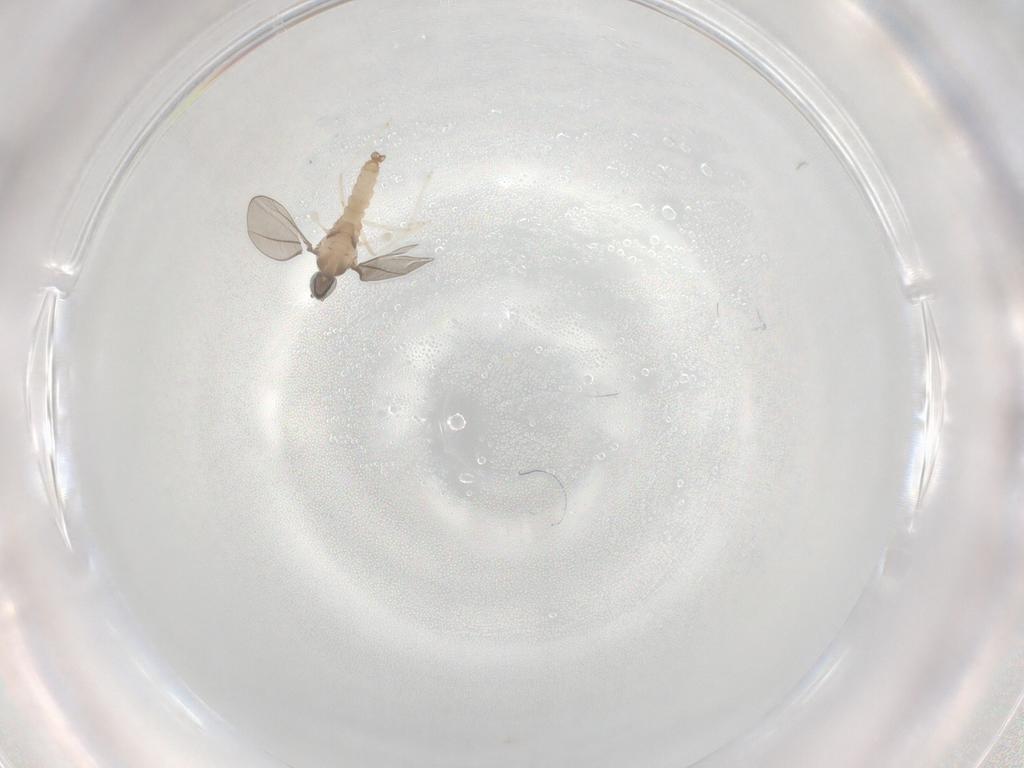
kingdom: Animalia
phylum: Arthropoda
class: Insecta
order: Diptera
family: Cecidomyiidae
